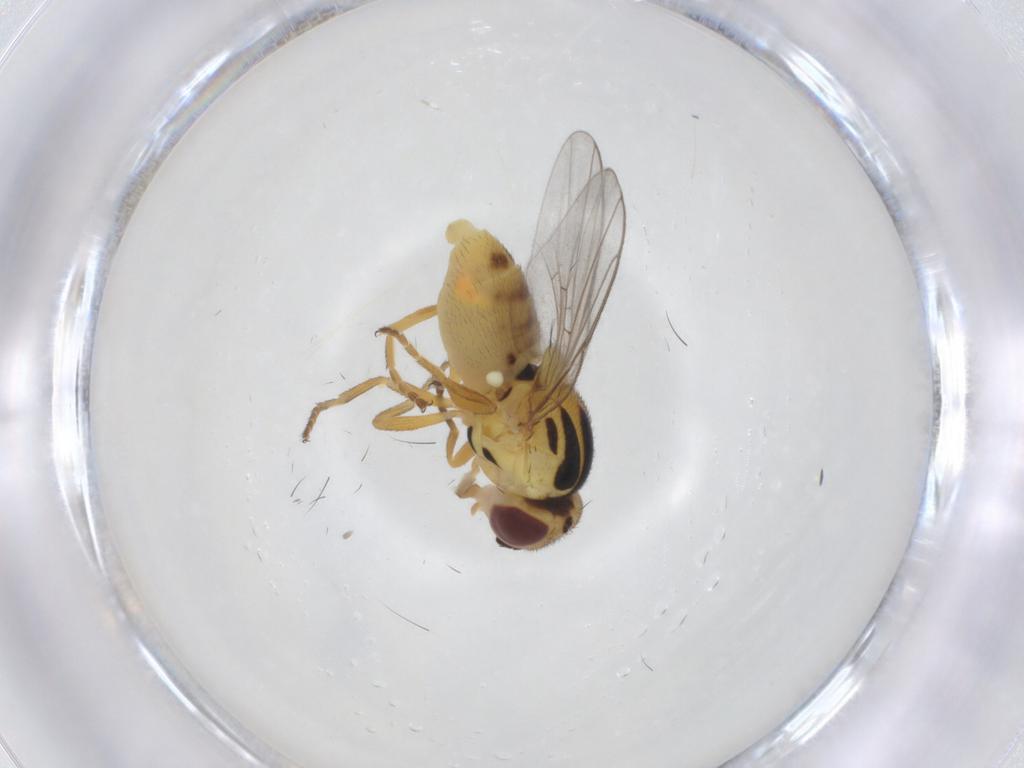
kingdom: Animalia
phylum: Arthropoda
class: Insecta
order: Diptera
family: Chloropidae
